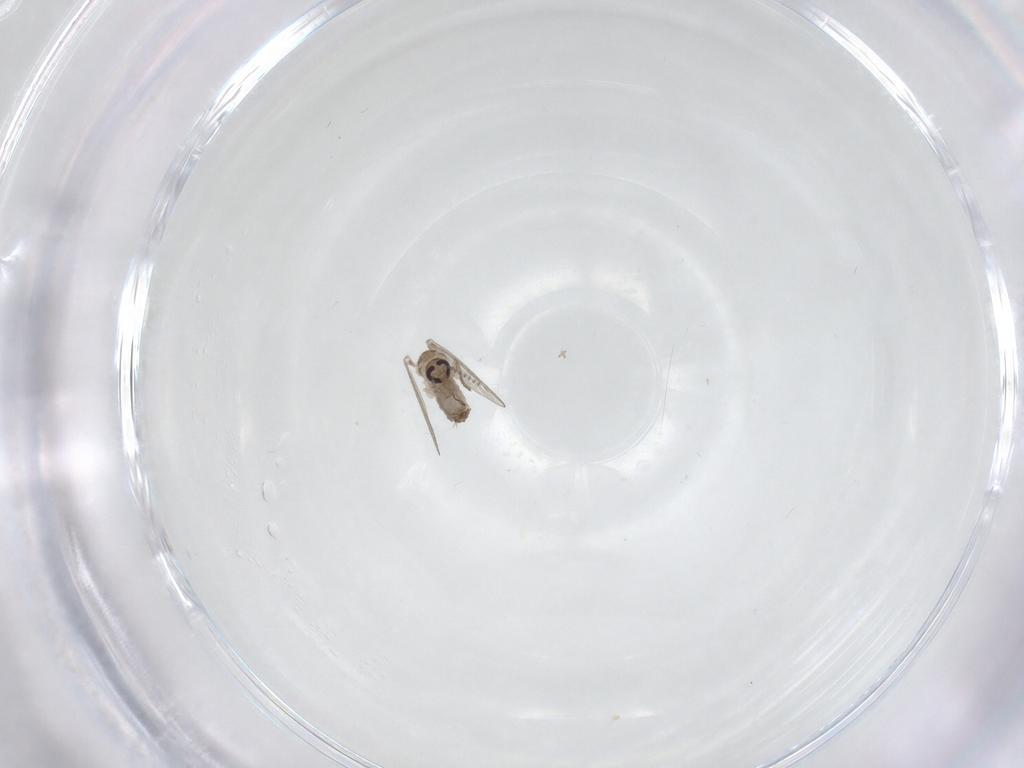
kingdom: Animalia
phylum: Arthropoda
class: Insecta
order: Diptera
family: Psychodidae
